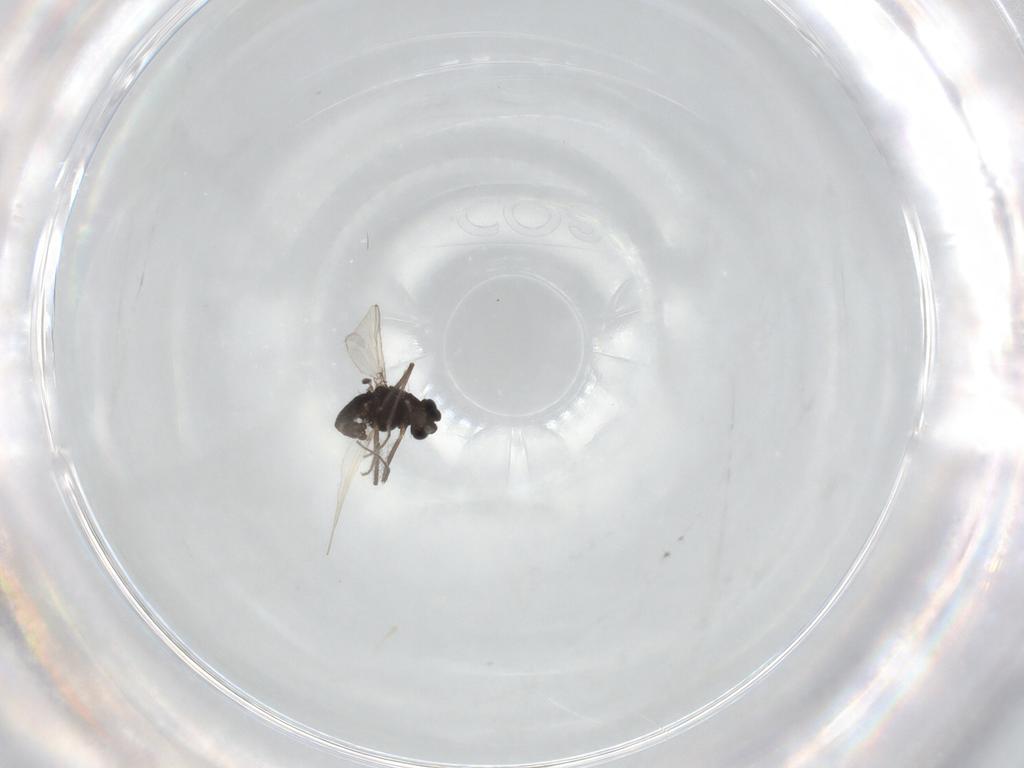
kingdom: Animalia
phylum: Arthropoda
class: Insecta
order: Diptera
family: Chironomidae
